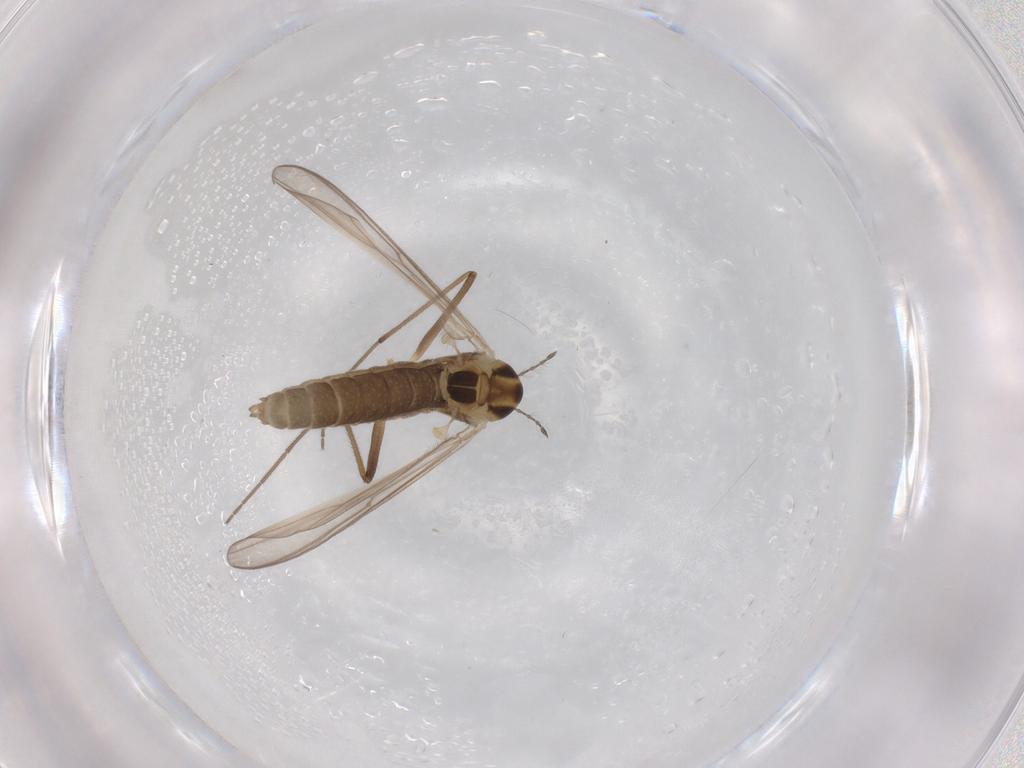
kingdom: Animalia
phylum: Arthropoda
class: Insecta
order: Diptera
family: Chironomidae
